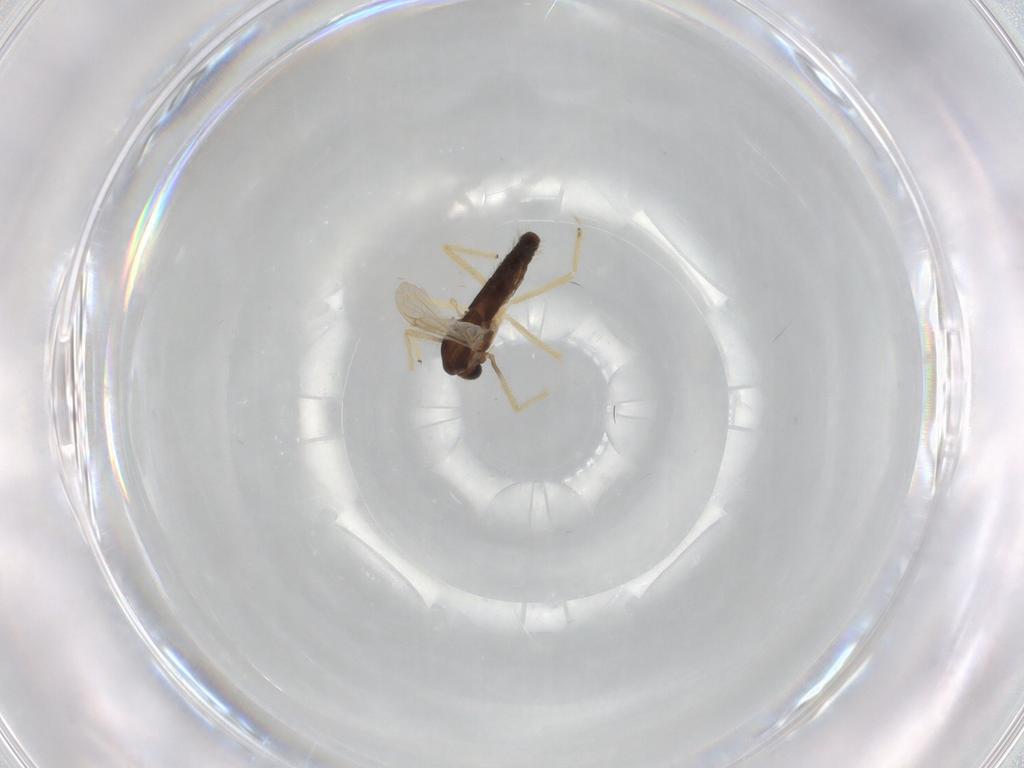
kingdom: Animalia
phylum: Arthropoda
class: Insecta
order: Diptera
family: Chironomidae
